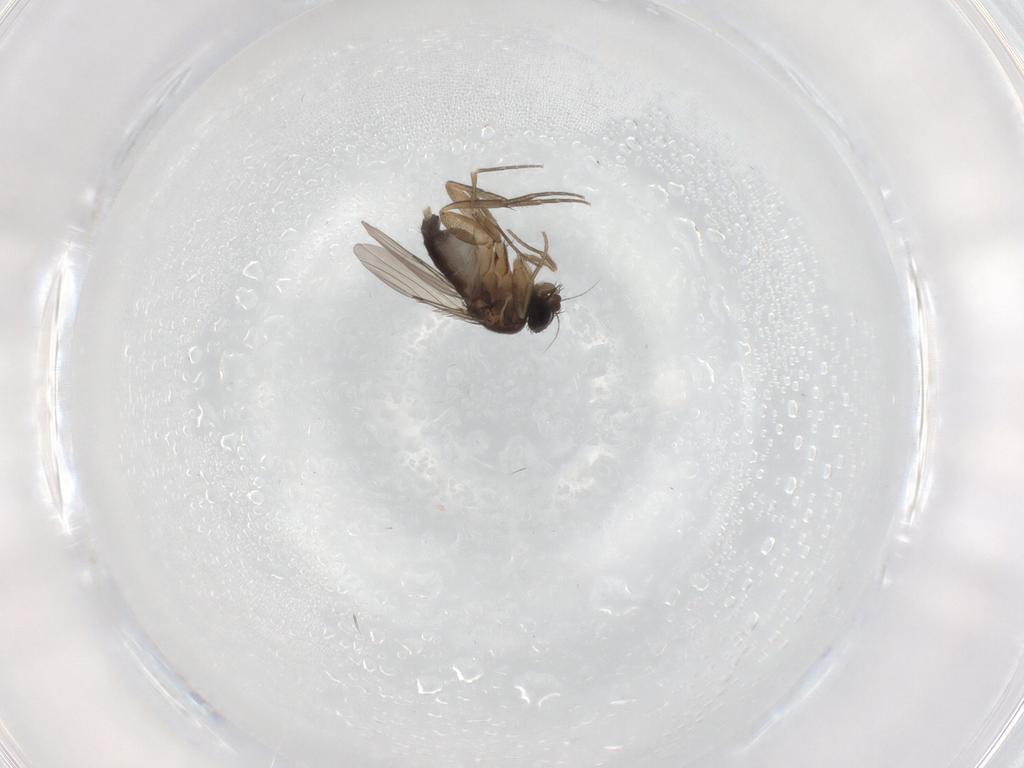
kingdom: Animalia
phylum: Arthropoda
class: Insecta
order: Diptera
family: Phoridae
